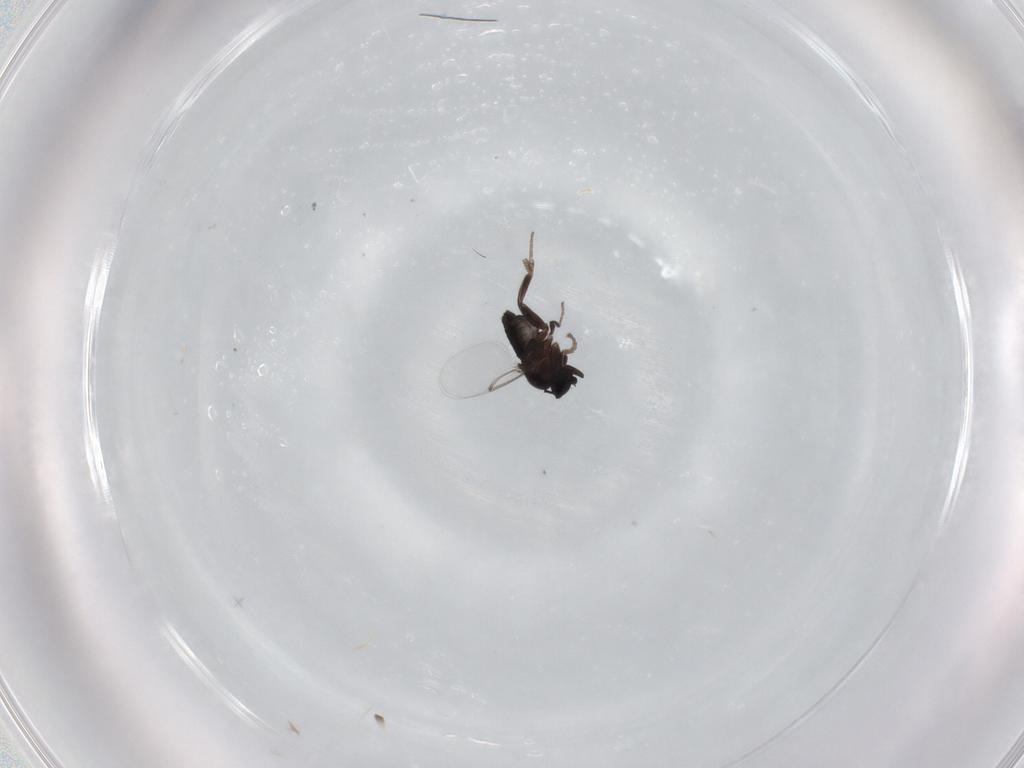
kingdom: Animalia
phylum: Arthropoda
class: Insecta
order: Diptera
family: Phoridae
